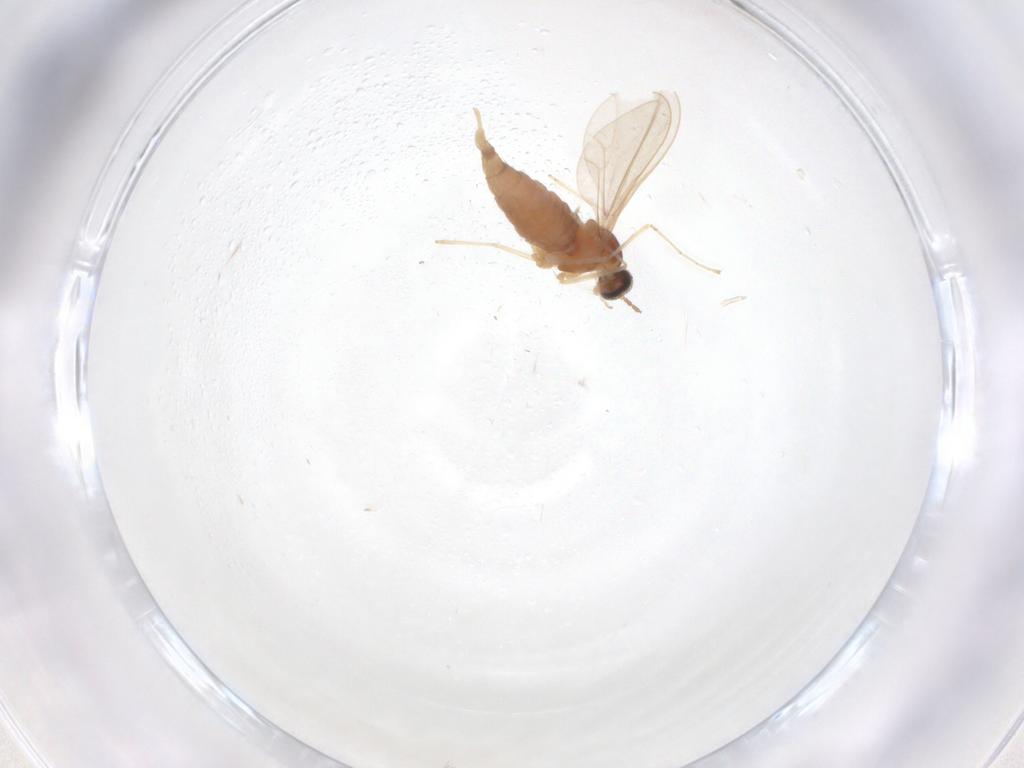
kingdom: Animalia
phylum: Arthropoda
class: Insecta
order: Diptera
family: Tabanidae
